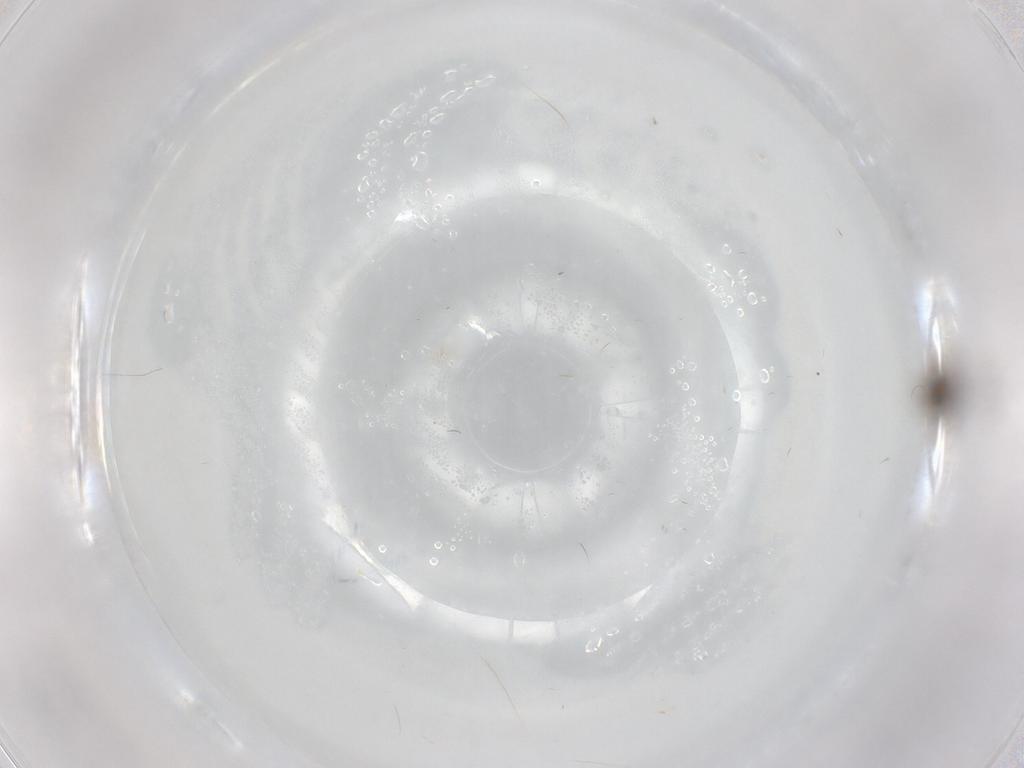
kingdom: Animalia
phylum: Arthropoda
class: Insecta
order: Diptera
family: Chironomidae
